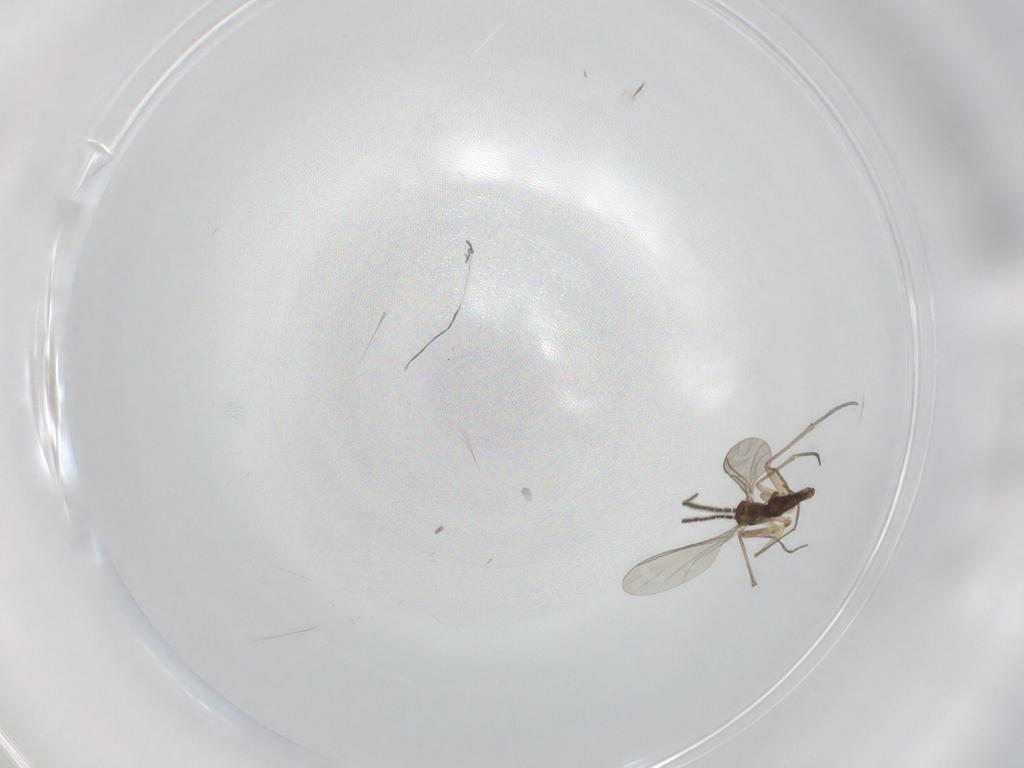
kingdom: Animalia
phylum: Arthropoda
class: Insecta
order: Diptera
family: Sciaridae
